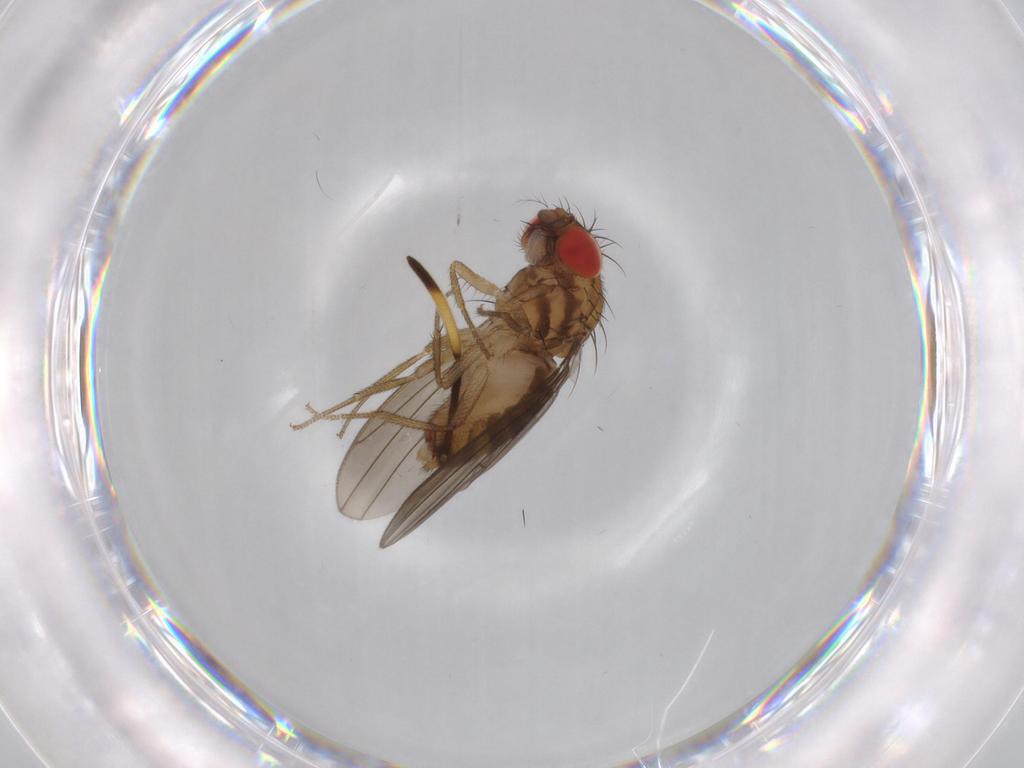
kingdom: Animalia
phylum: Arthropoda
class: Insecta
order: Diptera
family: Drosophilidae
